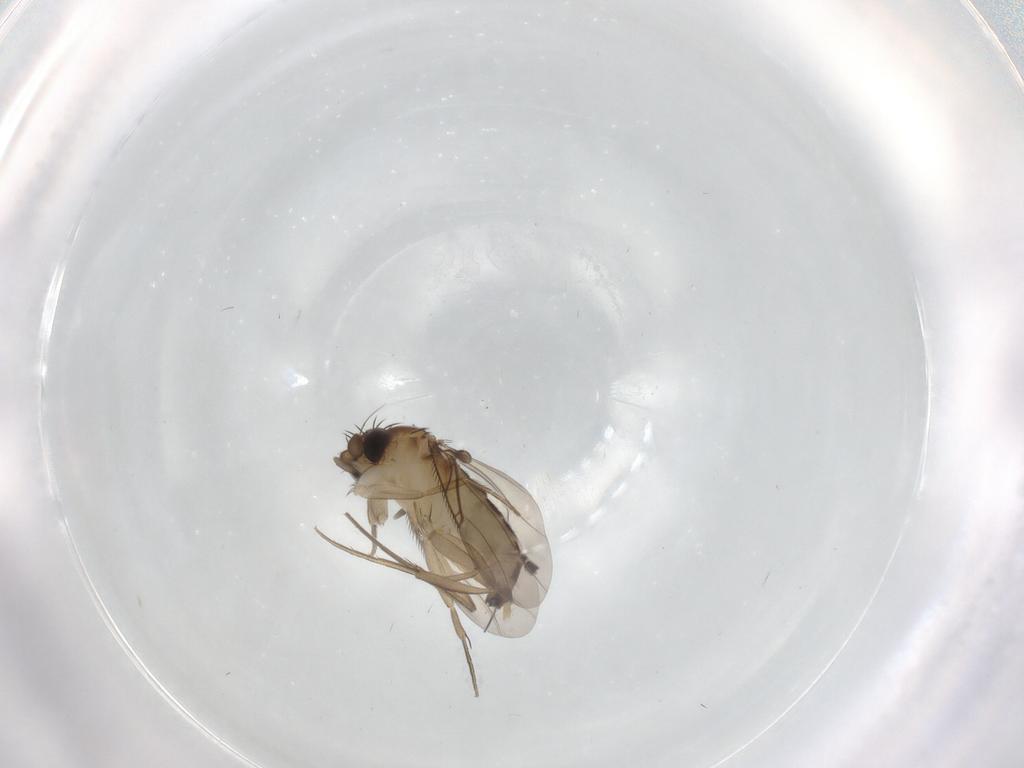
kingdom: Animalia
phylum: Arthropoda
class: Insecta
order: Diptera
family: Phoridae
